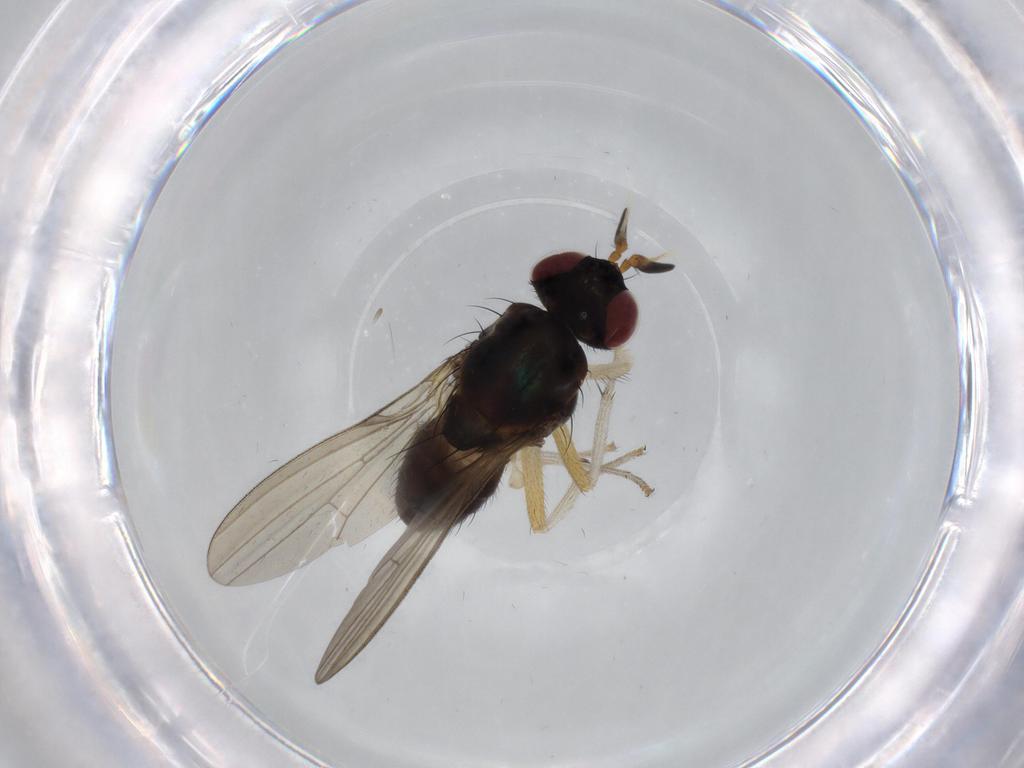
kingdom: Animalia
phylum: Arthropoda
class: Insecta
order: Diptera
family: Lauxaniidae
